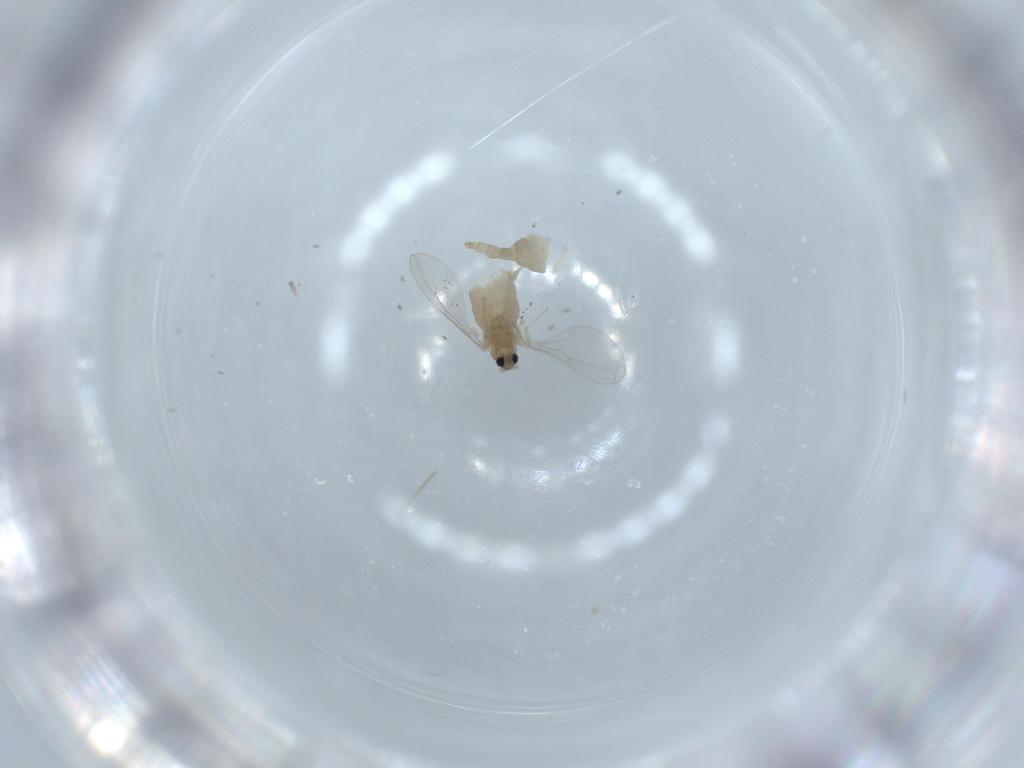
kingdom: Animalia
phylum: Arthropoda
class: Insecta
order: Diptera
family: Cecidomyiidae
